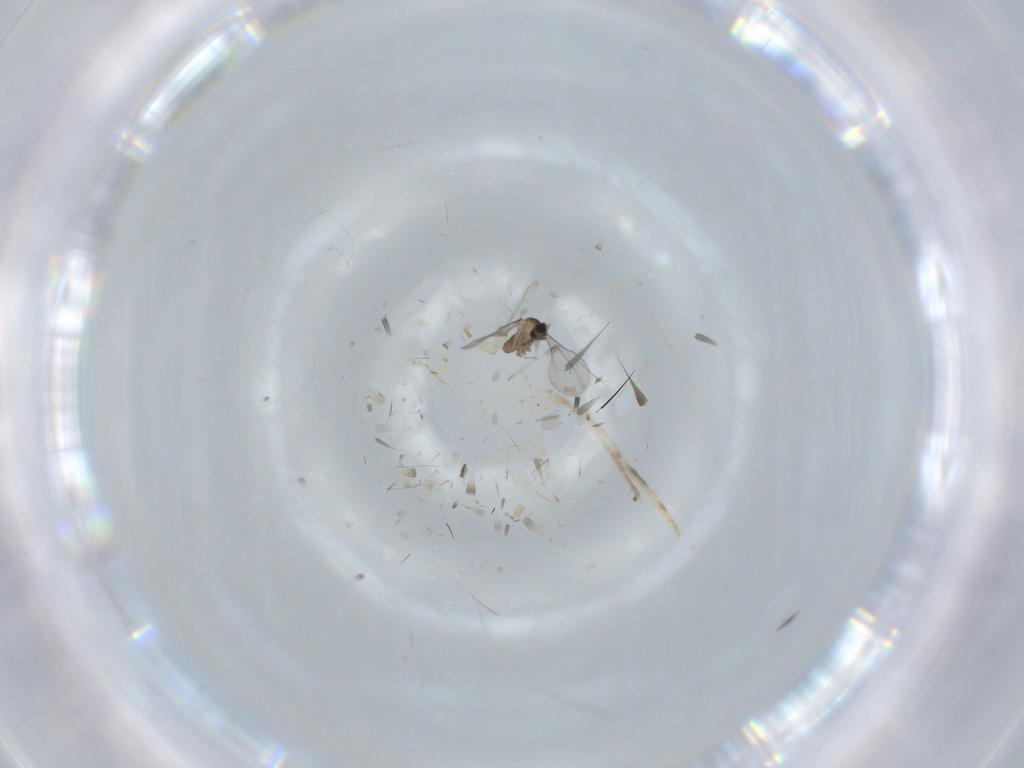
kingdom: Animalia
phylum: Arthropoda
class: Insecta
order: Diptera
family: Cecidomyiidae
